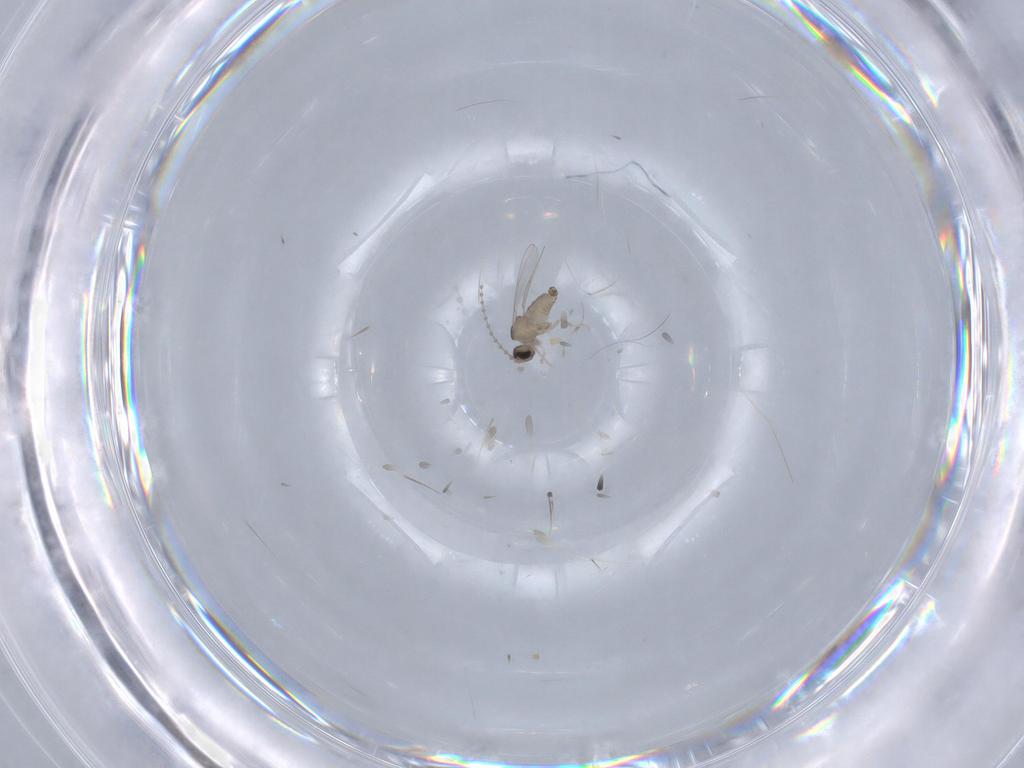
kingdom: Animalia
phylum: Arthropoda
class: Insecta
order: Diptera
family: Cecidomyiidae
